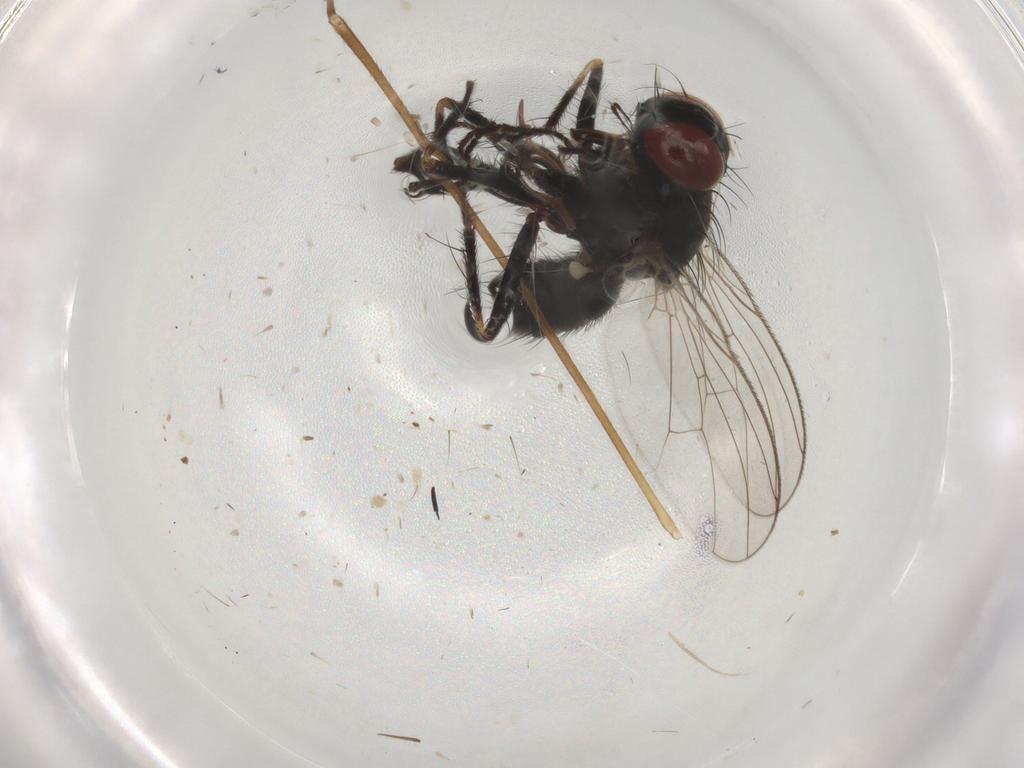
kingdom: Animalia
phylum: Arthropoda
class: Insecta
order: Diptera
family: Muscidae
